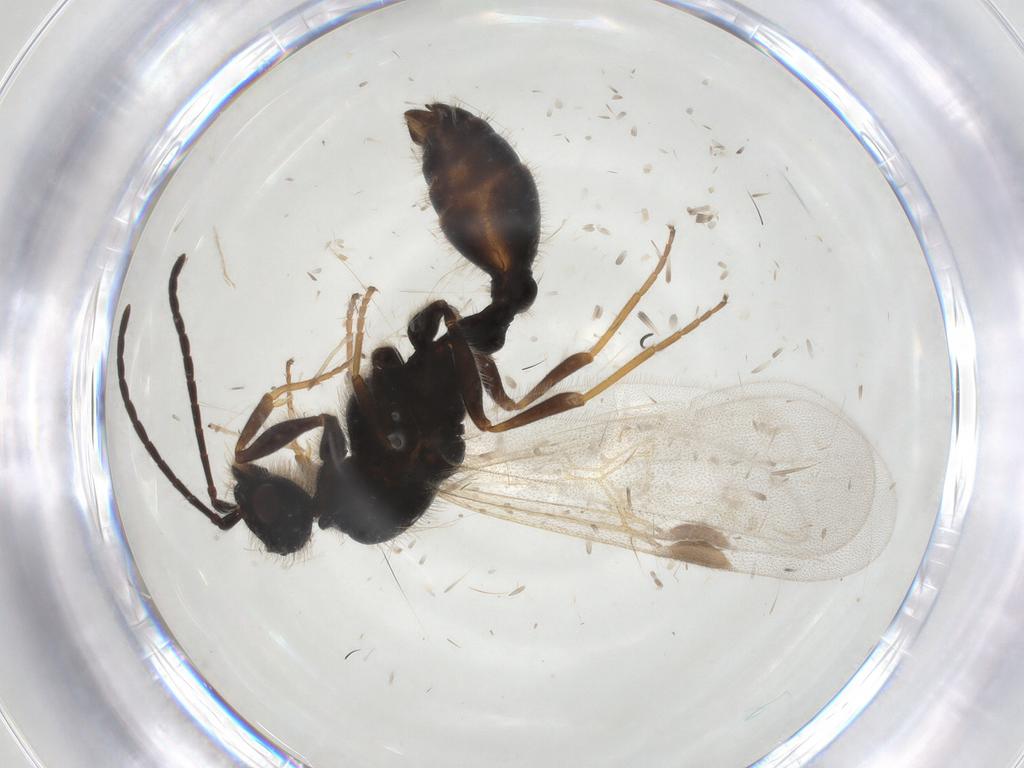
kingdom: Animalia
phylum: Arthropoda
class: Insecta
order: Hymenoptera
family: Formicidae
